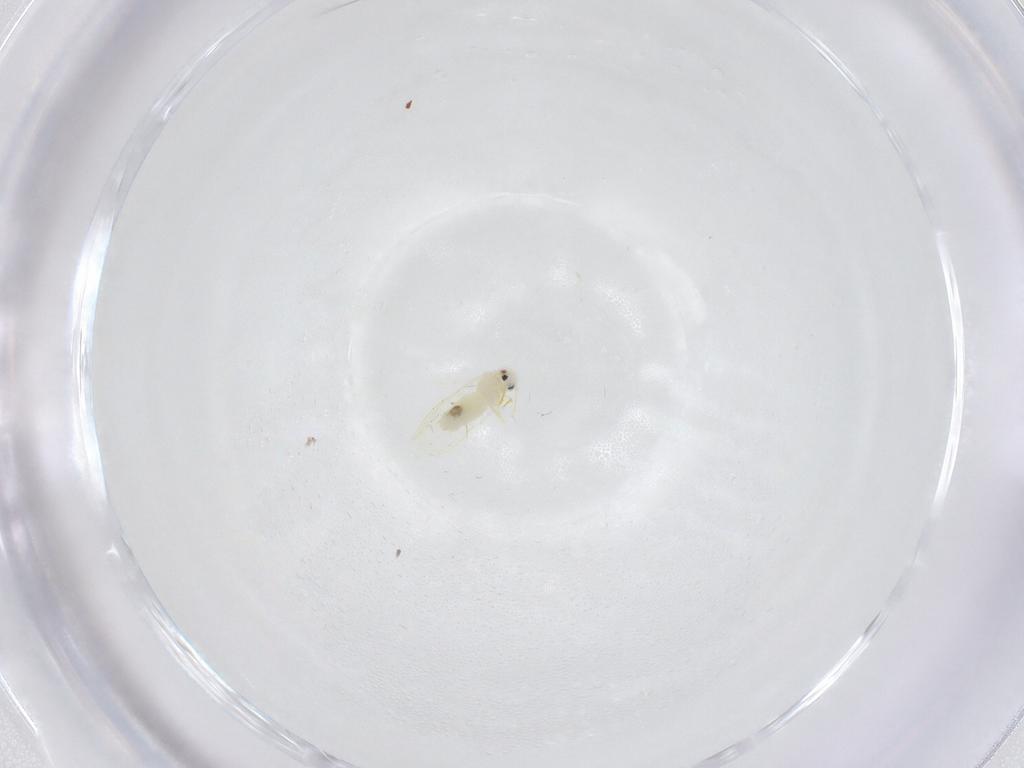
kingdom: Animalia
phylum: Arthropoda
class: Insecta
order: Diptera
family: Cecidomyiidae
